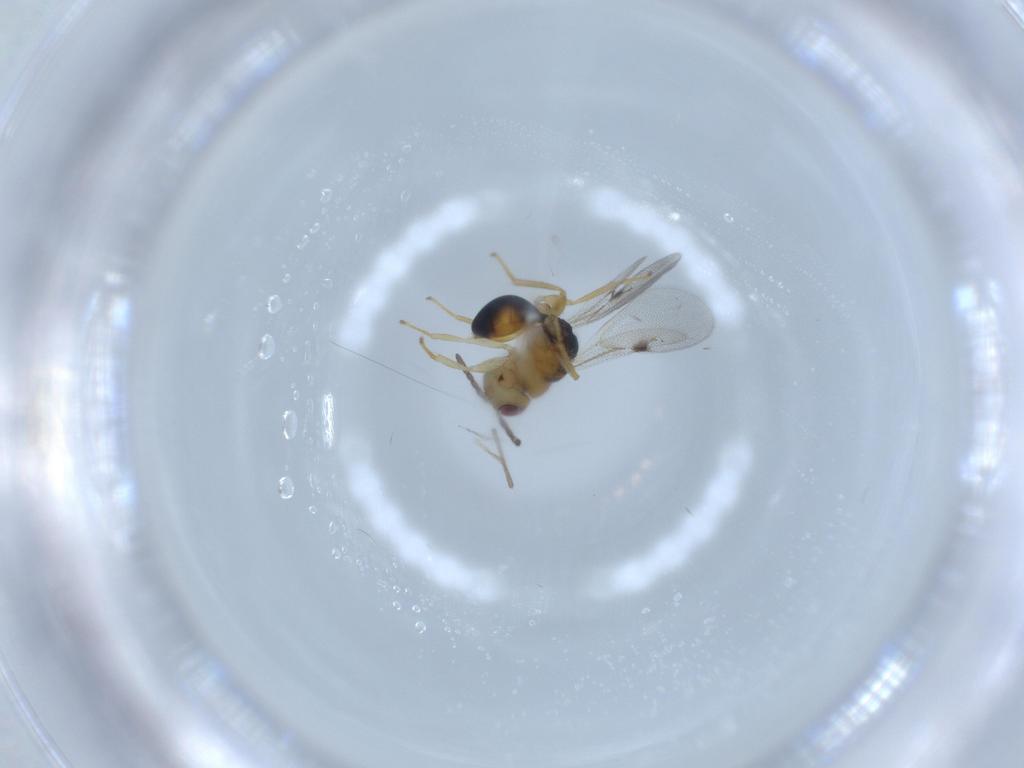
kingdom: Animalia
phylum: Arthropoda
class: Insecta
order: Hymenoptera
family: Eurytomidae
